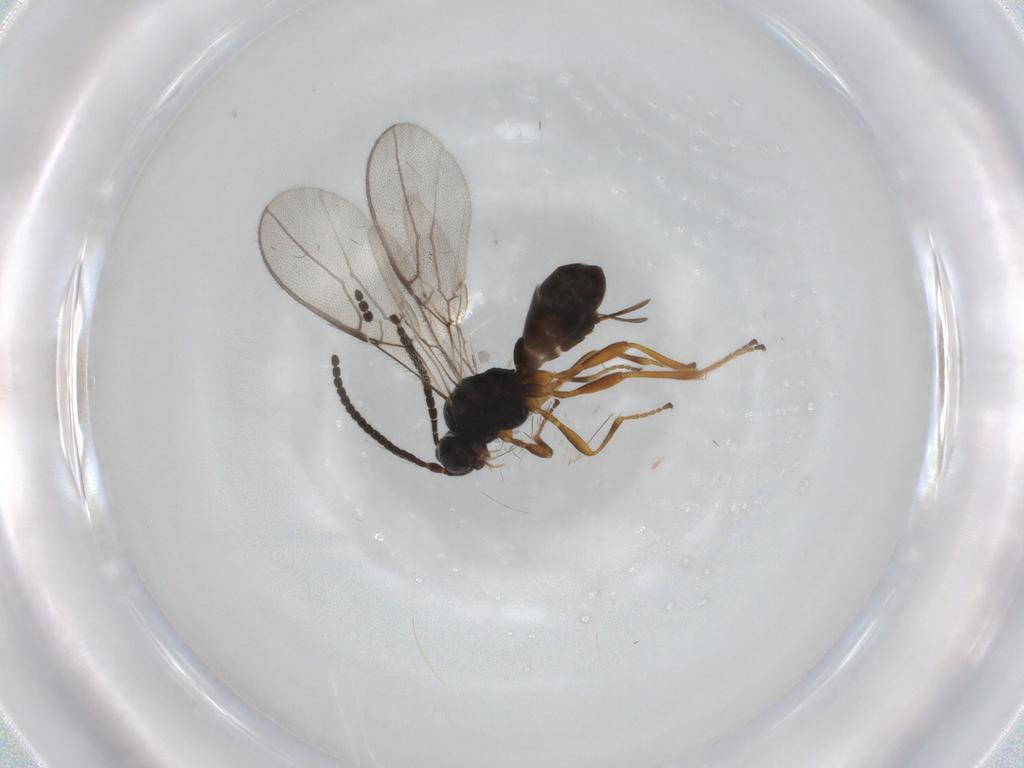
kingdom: Animalia
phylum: Arthropoda
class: Insecta
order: Hymenoptera
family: Braconidae
